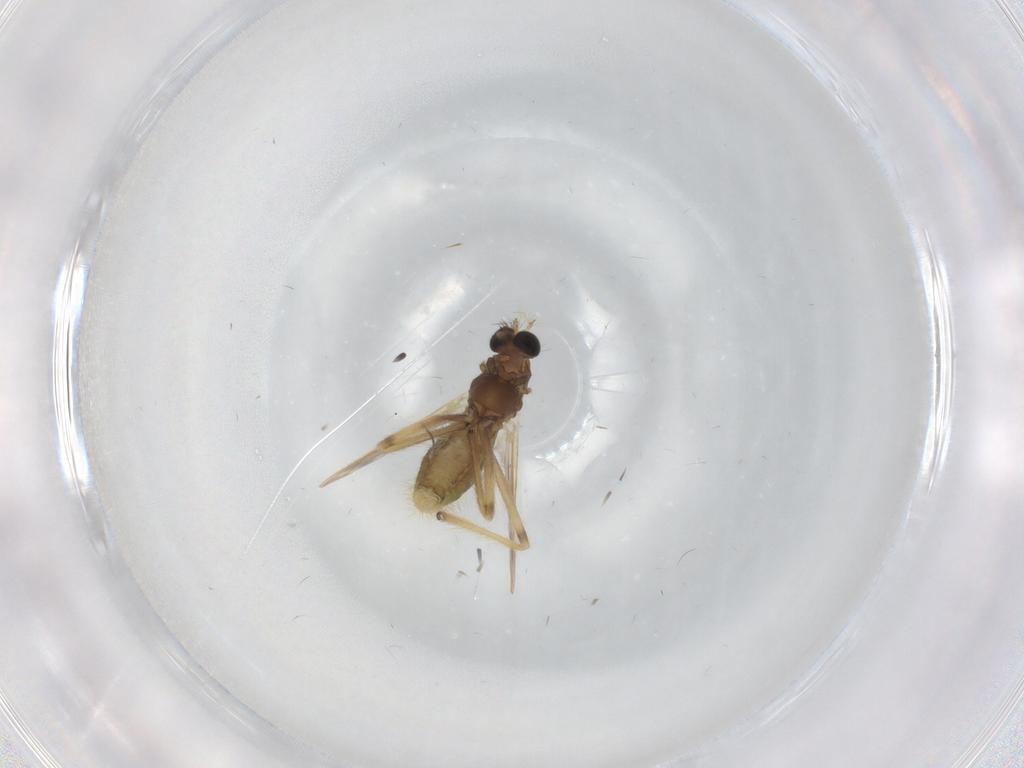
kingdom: Animalia
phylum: Arthropoda
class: Insecta
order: Diptera
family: Chironomidae
